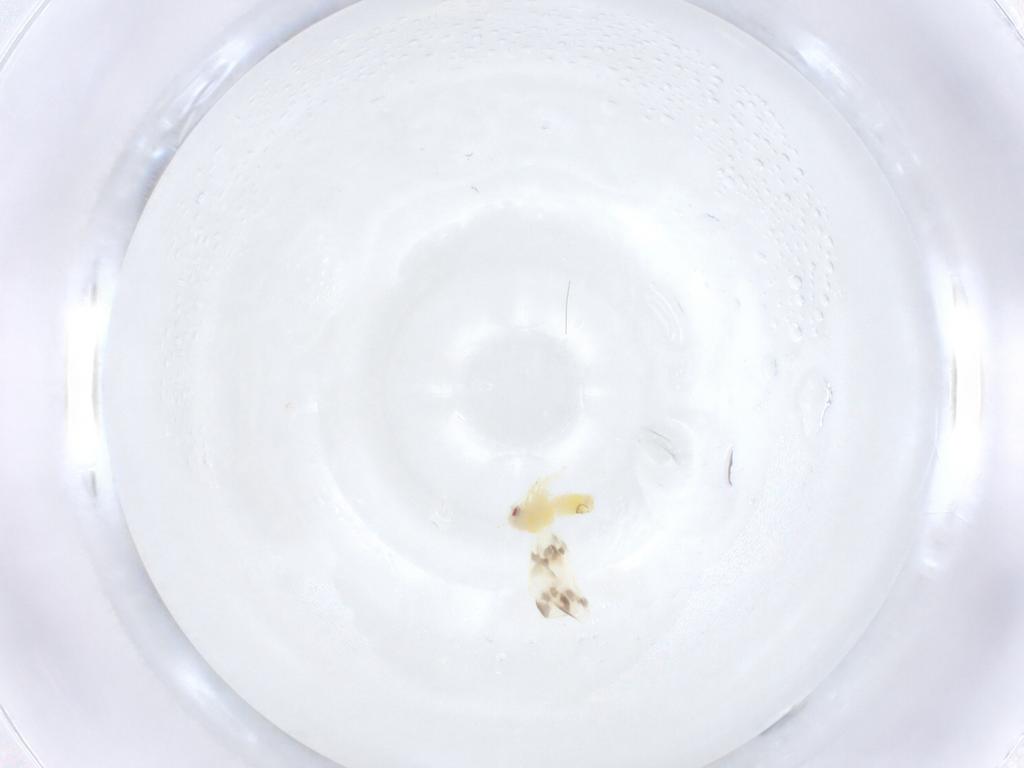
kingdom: Animalia
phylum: Arthropoda
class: Insecta
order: Hemiptera
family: Aleyrodidae
